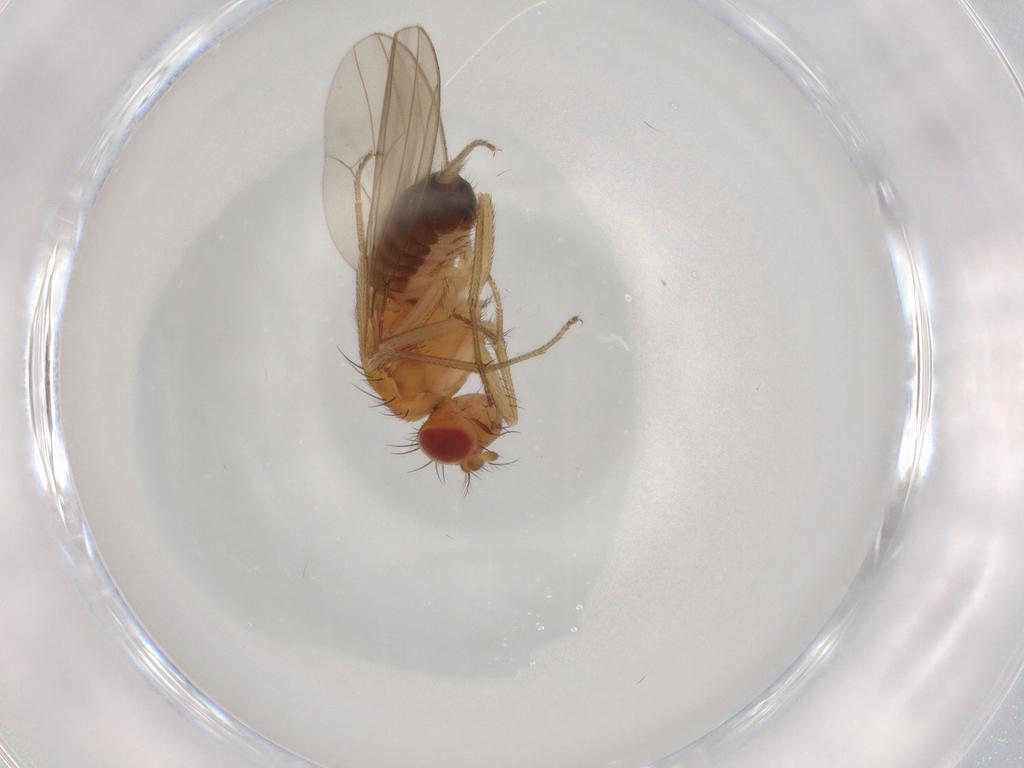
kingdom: Animalia
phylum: Arthropoda
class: Insecta
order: Diptera
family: Drosophilidae
